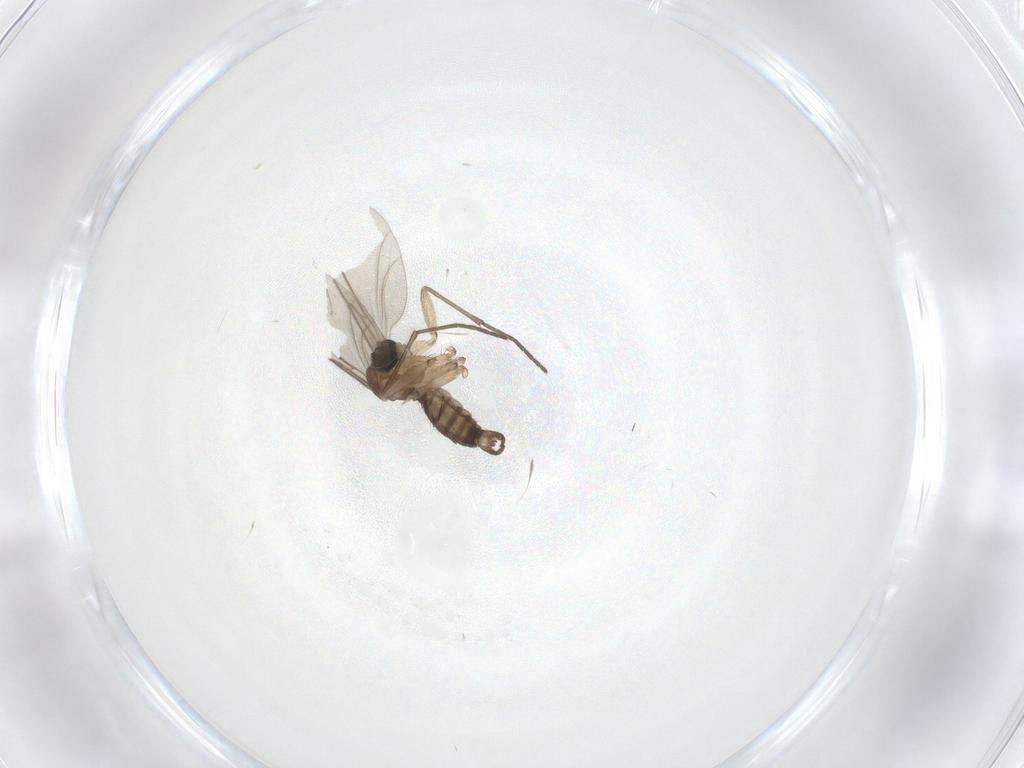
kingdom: Animalia
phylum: Arthropoda
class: Insecta
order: Diptera
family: Sciaridae
